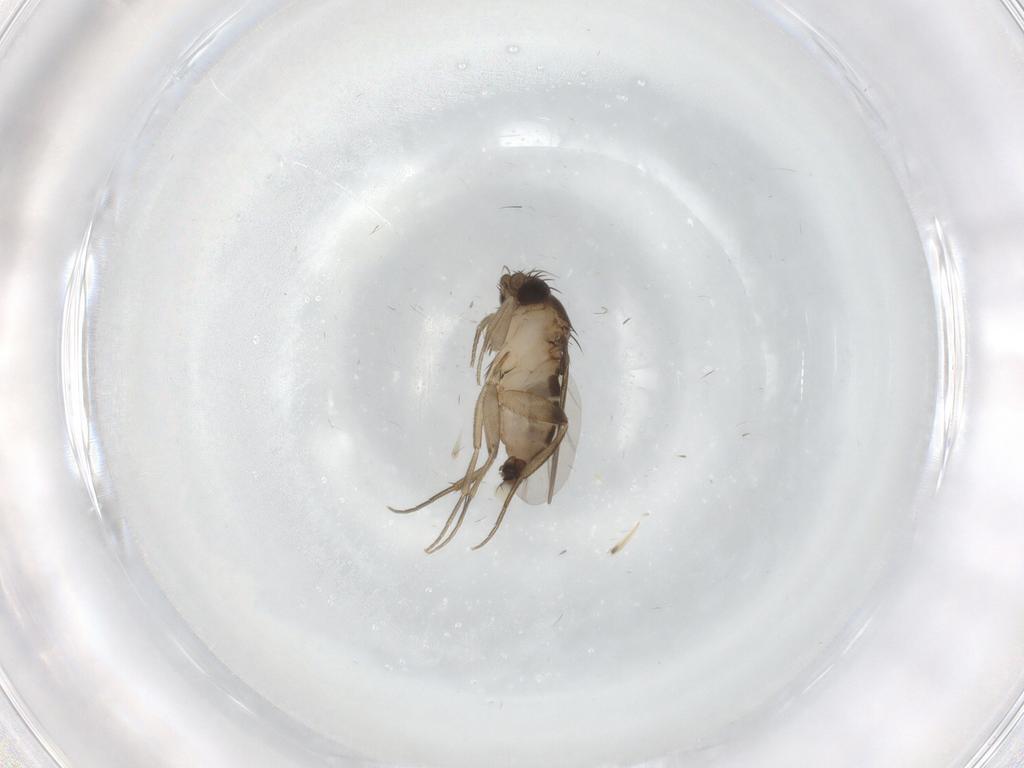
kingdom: Animalia
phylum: Arthropoda
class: Insecta
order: Diptera
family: Phoridae
